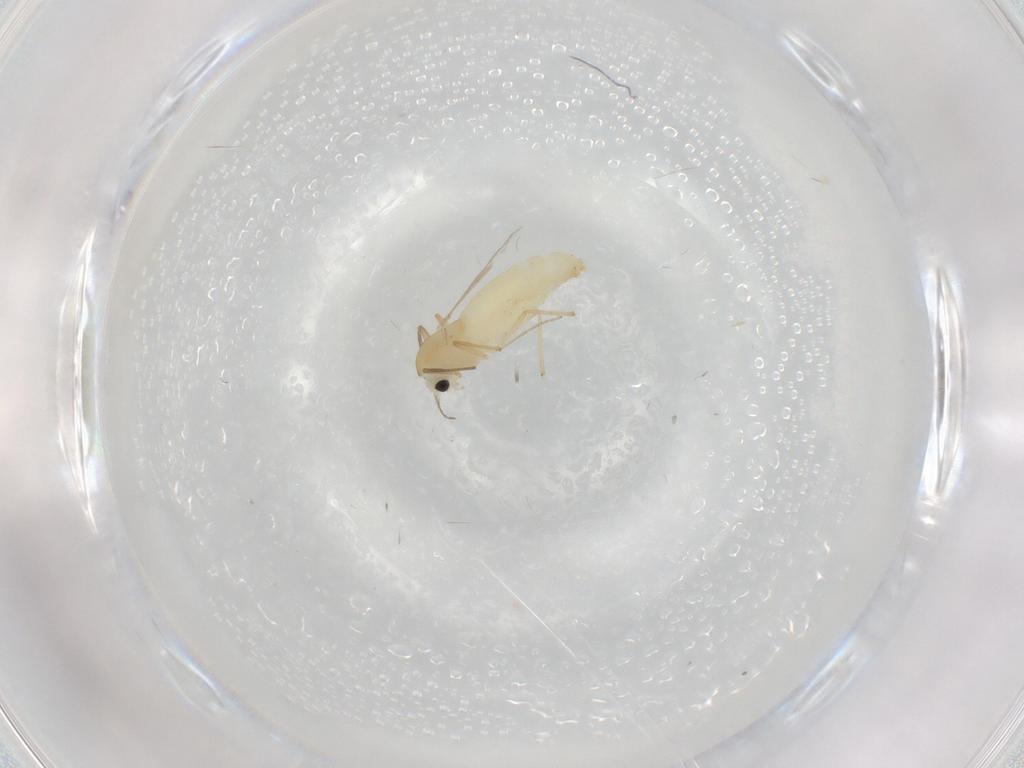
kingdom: Animalia
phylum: Arthropoda
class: Insecta
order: Diptera
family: Chironomidae
